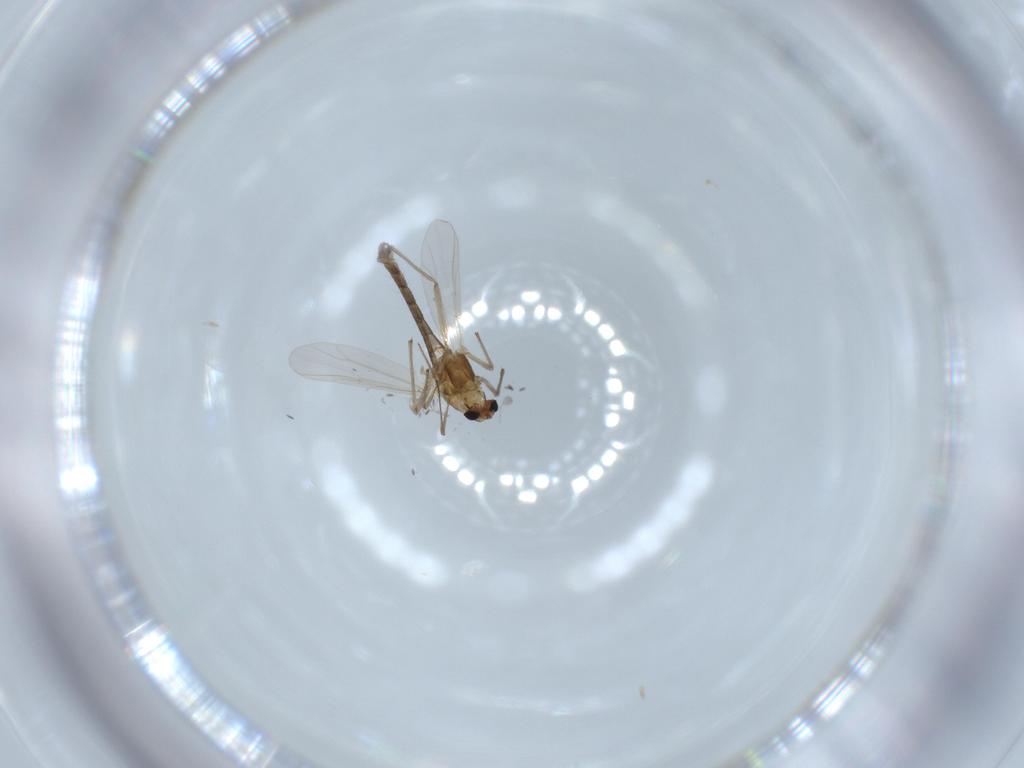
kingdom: Animalia
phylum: Arthropoda
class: Insecta
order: Diptera
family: Chironomidae
